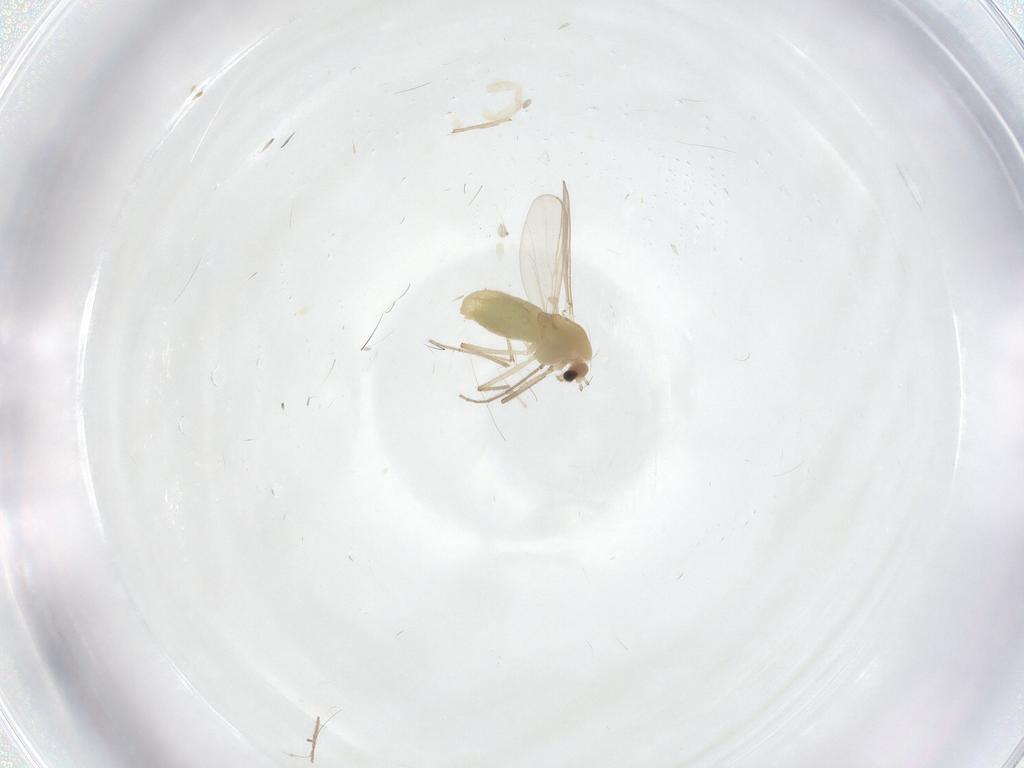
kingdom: Animalia
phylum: Arthropoda
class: Insecta
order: Diptera
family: Chironomidae
